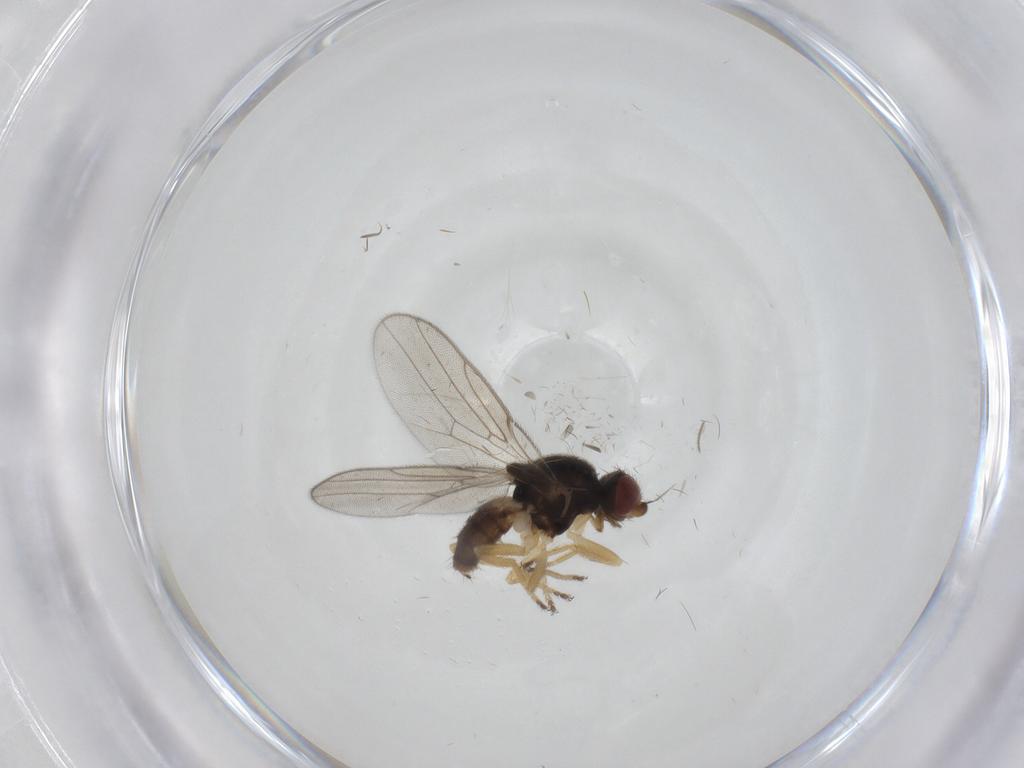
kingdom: Animalia
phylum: Arthropoda
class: Insecta
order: Diptera
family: Chloropidae
